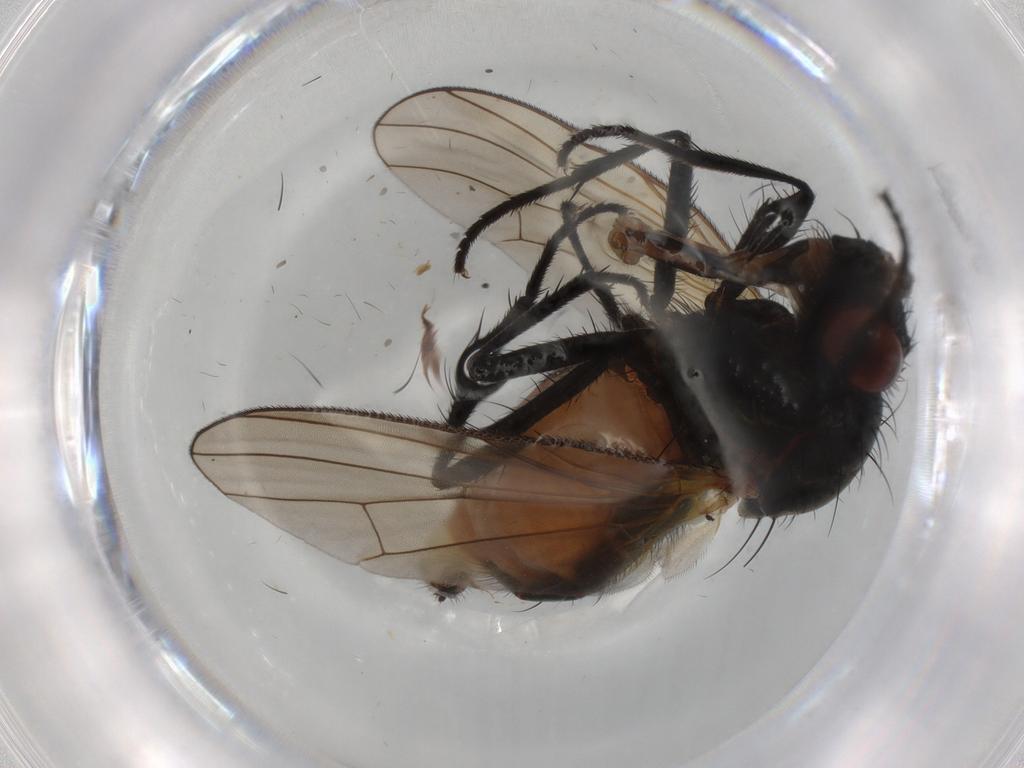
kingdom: Animalia
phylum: Arthropoda
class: Insecta
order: Diptera
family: Anthomyiidae
